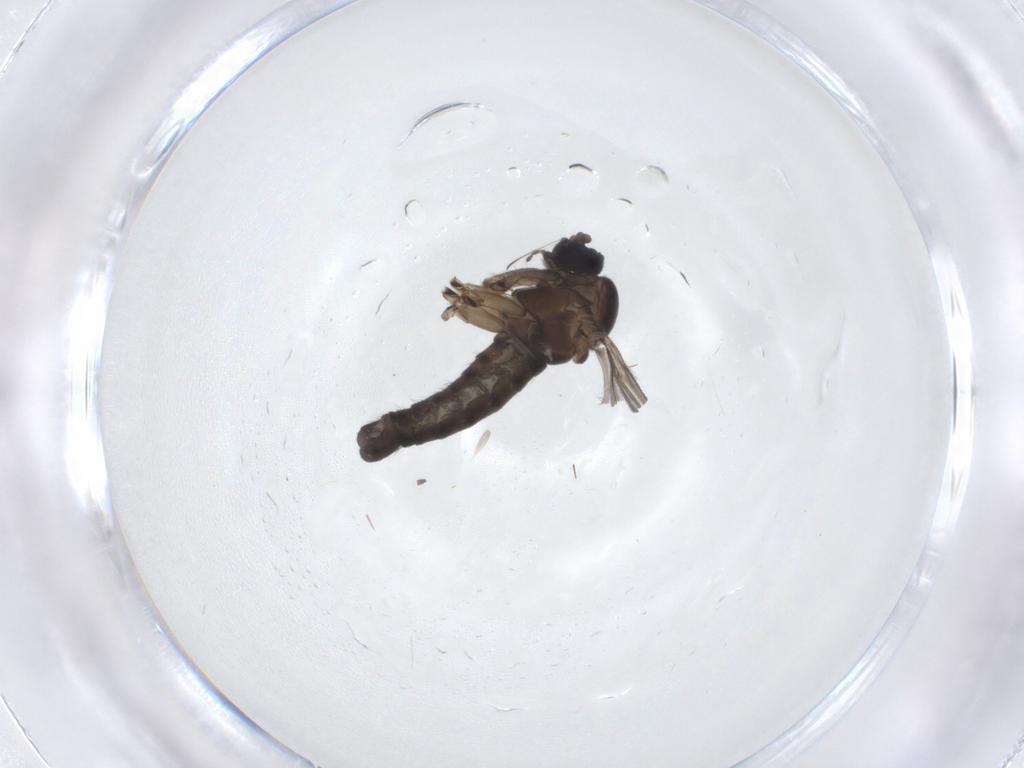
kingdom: Animalia
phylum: Arthropoda
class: Insecta
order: Diptera
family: Sciaridae
